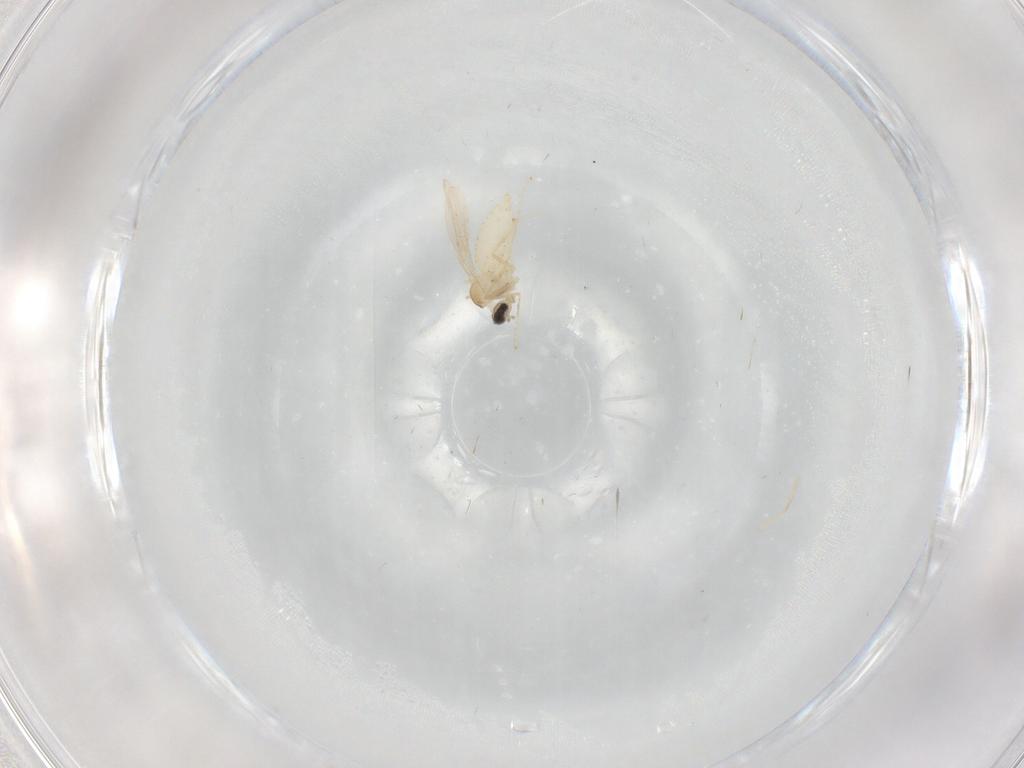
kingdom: Animalia
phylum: Arthropoda
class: Insecta
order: Diptera
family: Cecidomyiidae
